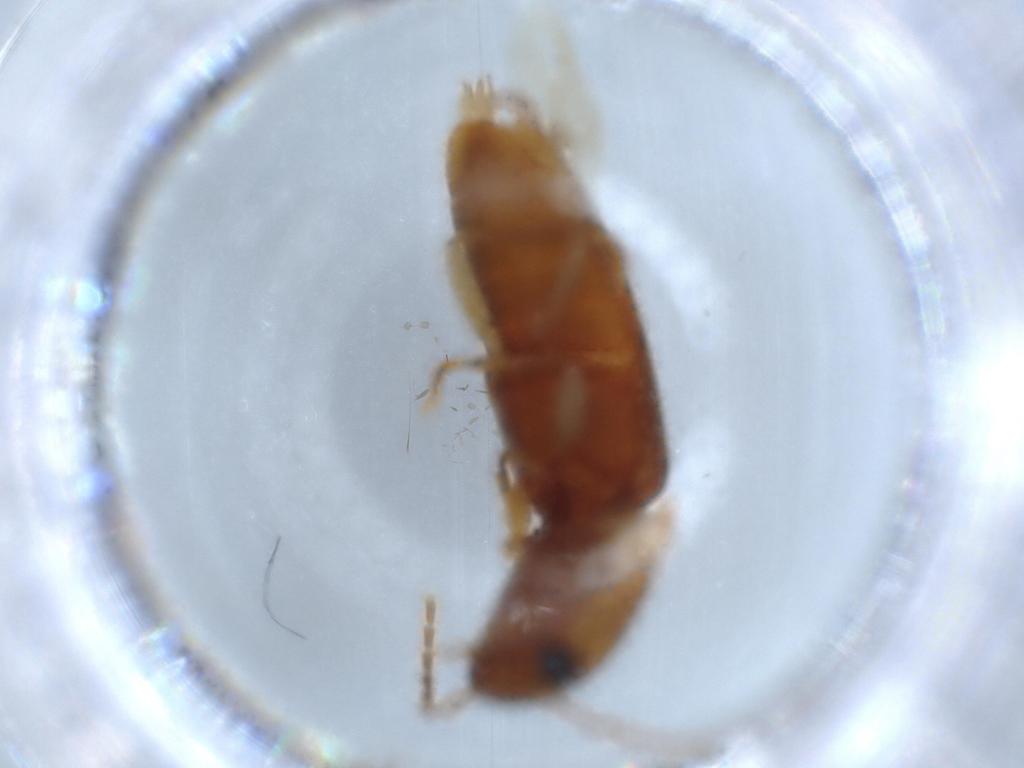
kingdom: Animalia
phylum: Arthropoda
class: Insecta
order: Coleoptera
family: Elateridae
